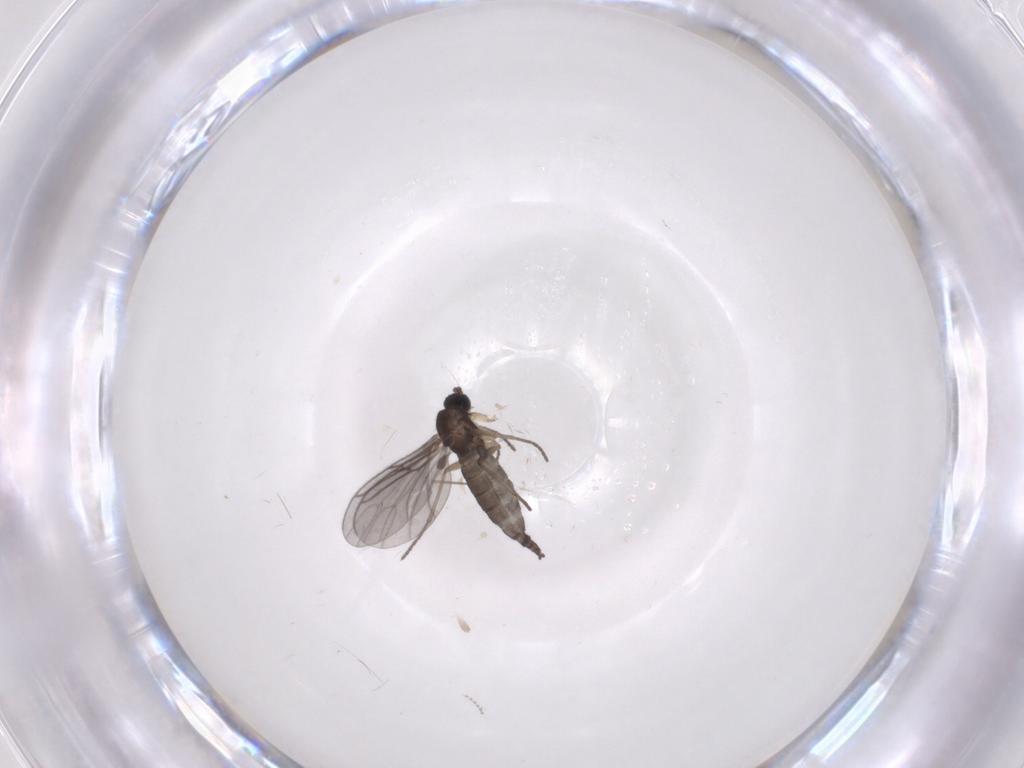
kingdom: Animalia
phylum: Arthropoda
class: Insecta
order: Diptera
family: Sciaridae
